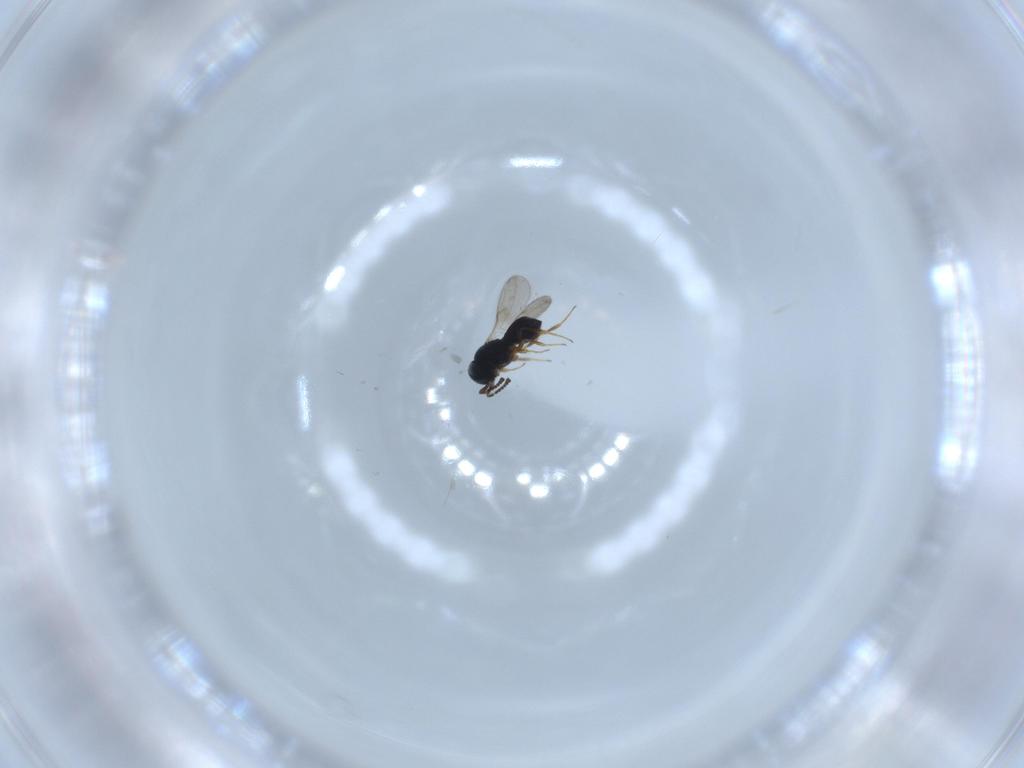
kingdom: Animalia
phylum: Arthropoda
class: Insecta
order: Hymenoptera
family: Scelionidae
